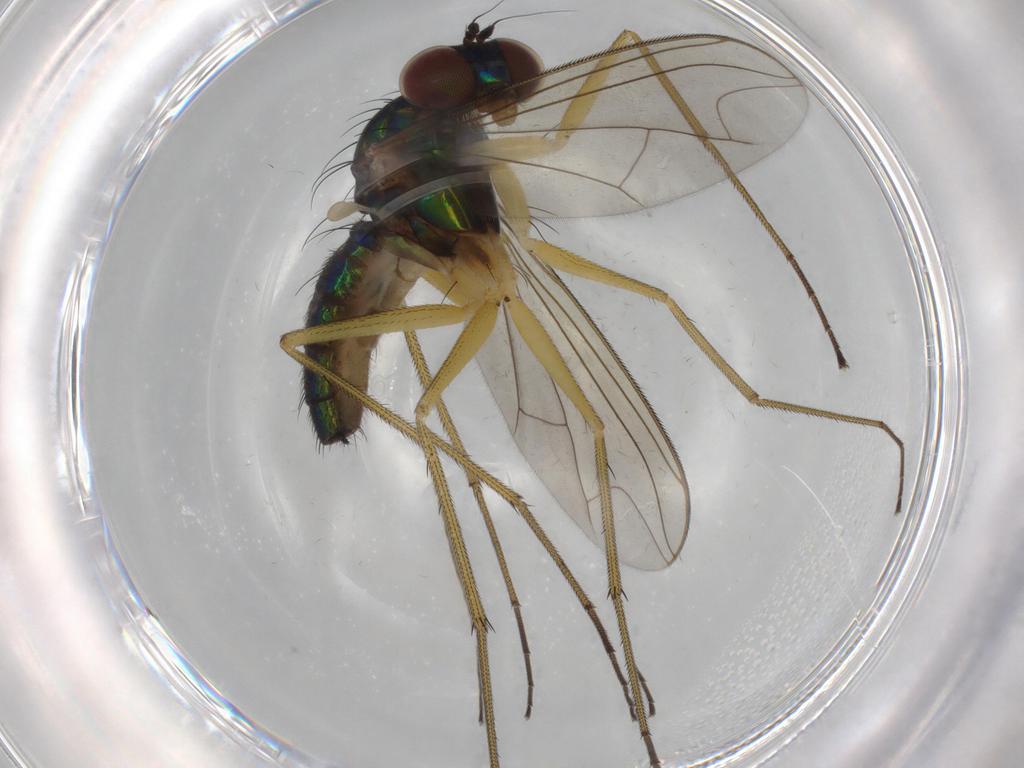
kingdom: Animalia
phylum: Arthropoda
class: Insecta
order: Diptera
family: Dolichopodidae
